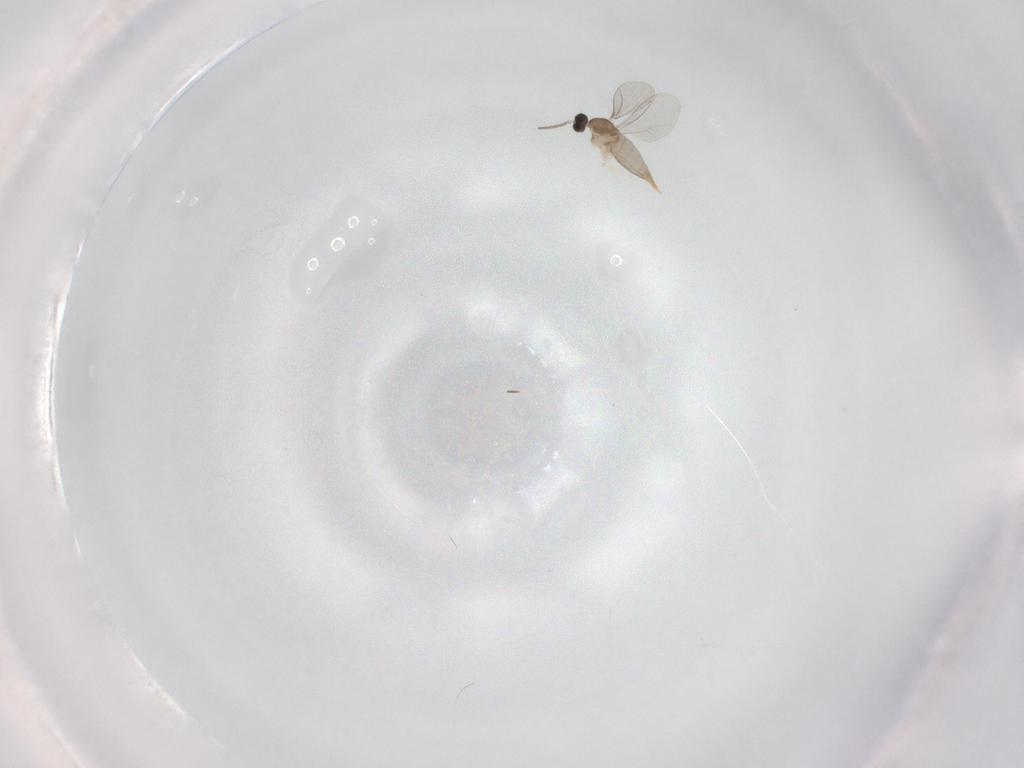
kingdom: Animalia
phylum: Arthropoda
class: Insecta
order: Diptera
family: Cecidomyiidae
